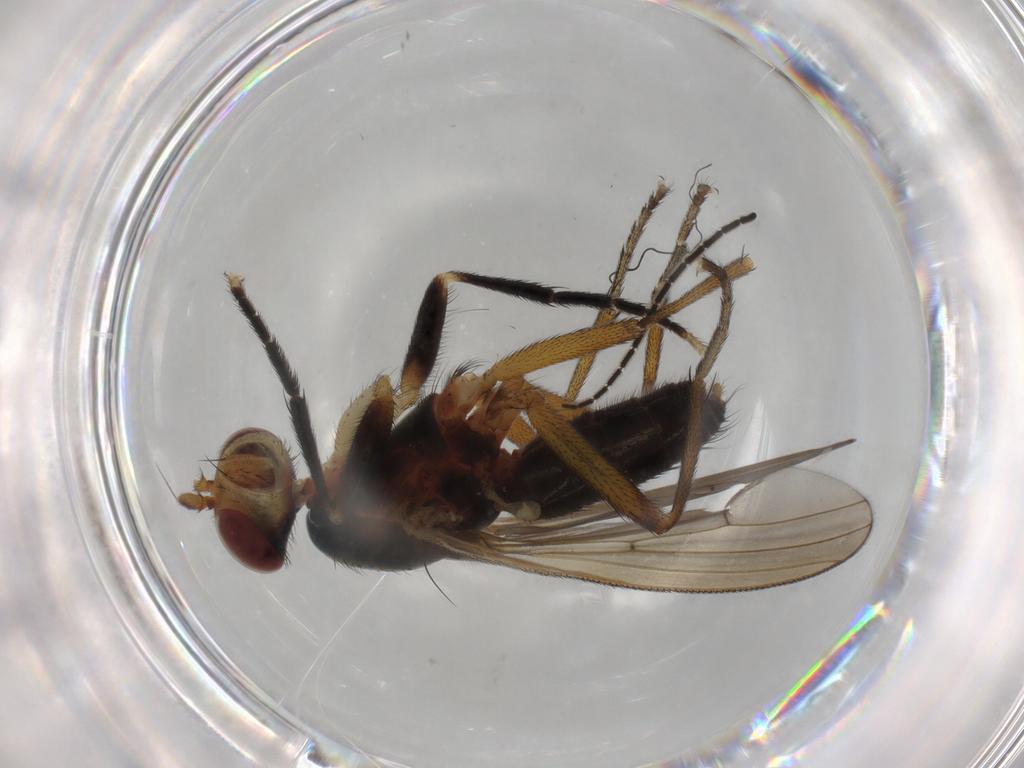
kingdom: Animalia
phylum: Arthropoda
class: Insecta
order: Diptera
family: Sciomyzidae
